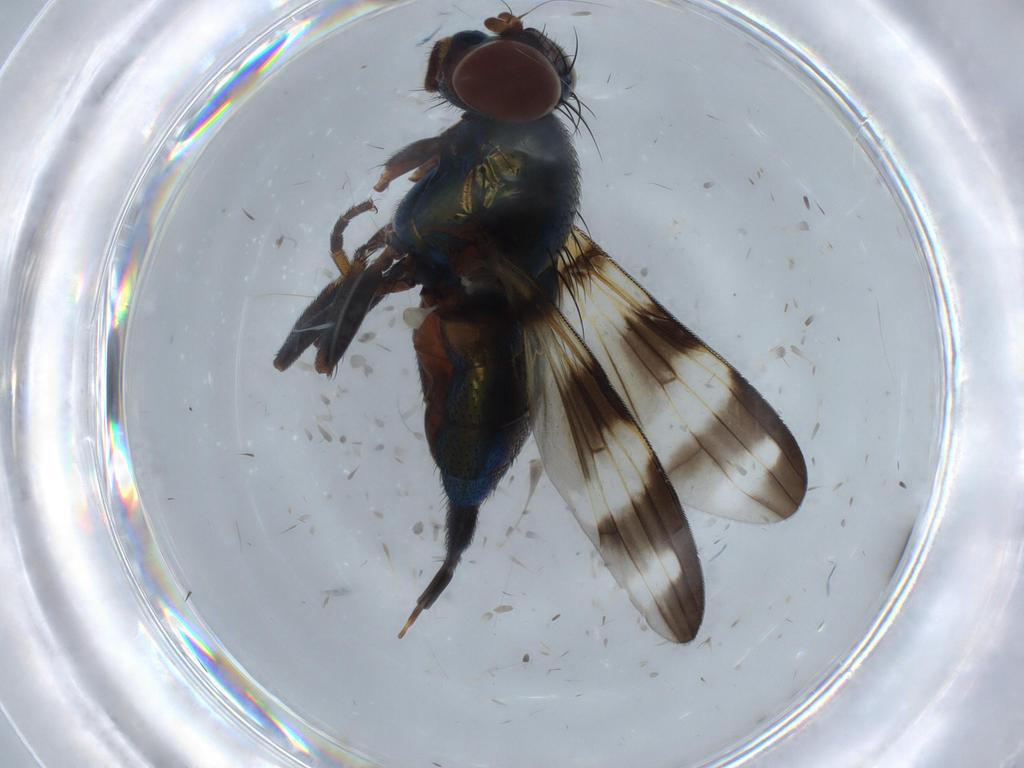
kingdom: Animalia
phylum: Arthropoda
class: Insecta
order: Diptera
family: Ulidiidae
